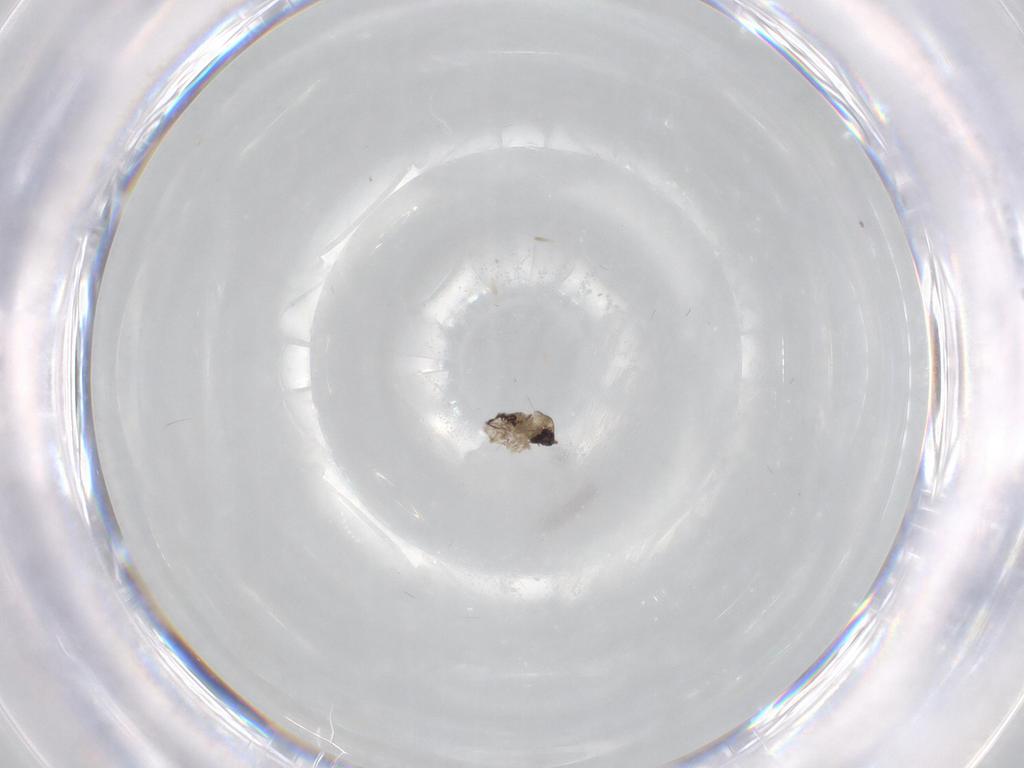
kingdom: Animalia
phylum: Arthropoda
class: Insecta
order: Diptera
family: Psychodidae
